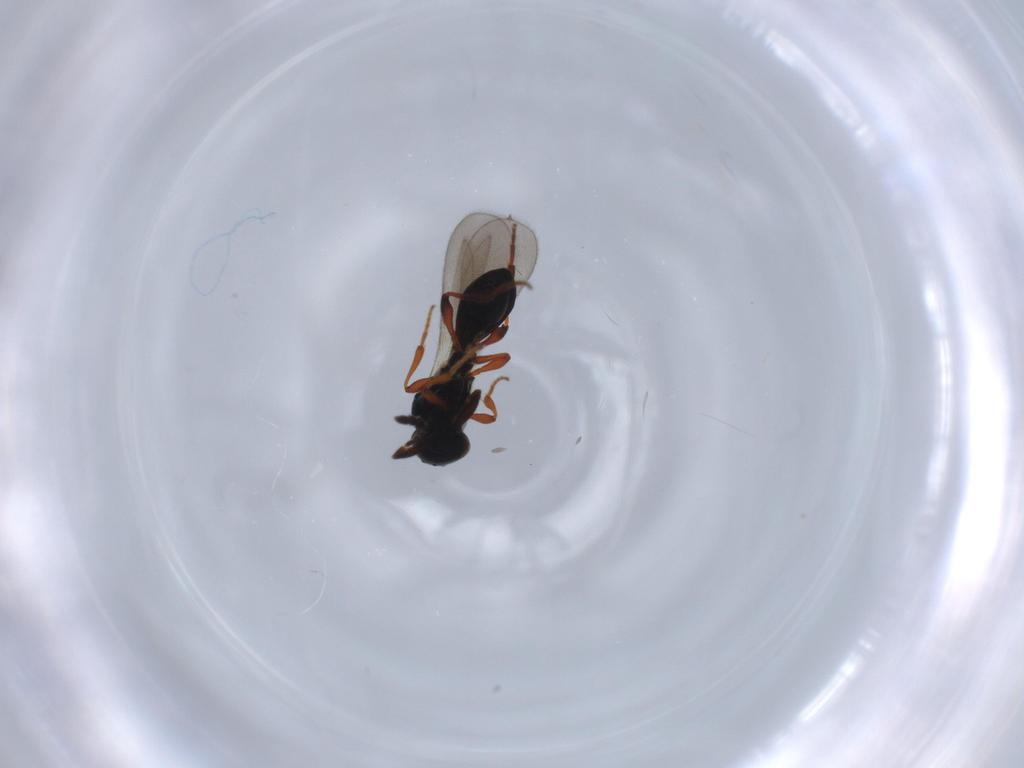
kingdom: Animalia
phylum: Arthropoda
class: Insecta
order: Hymenoptera
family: Platygastridae
